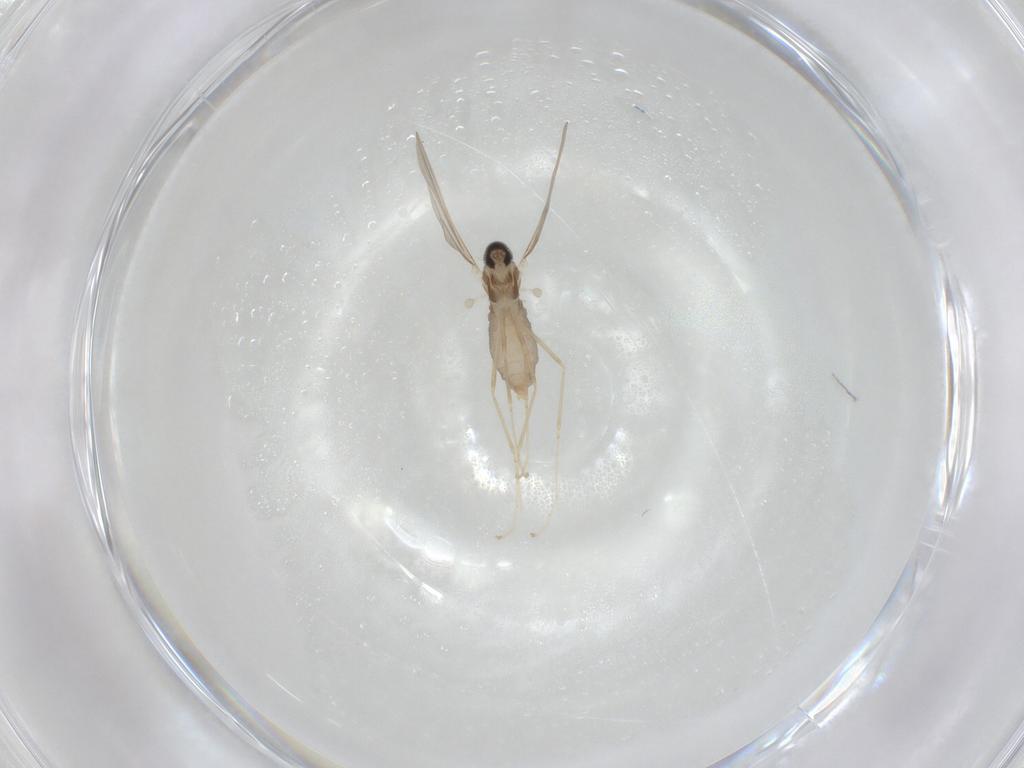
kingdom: Animalia
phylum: Arthropoda
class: Insecta
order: Diptera
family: Cecidomyiidae
